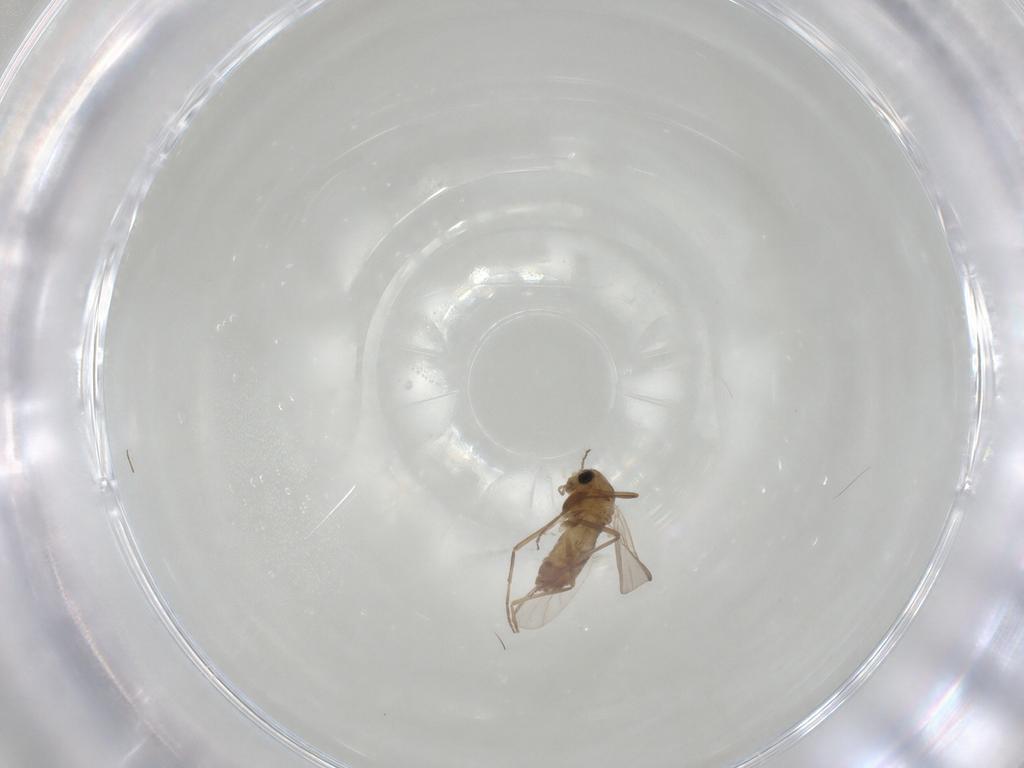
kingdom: Animalia
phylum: Arthropoda
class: Insecta
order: Diptera
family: Chironomidae
